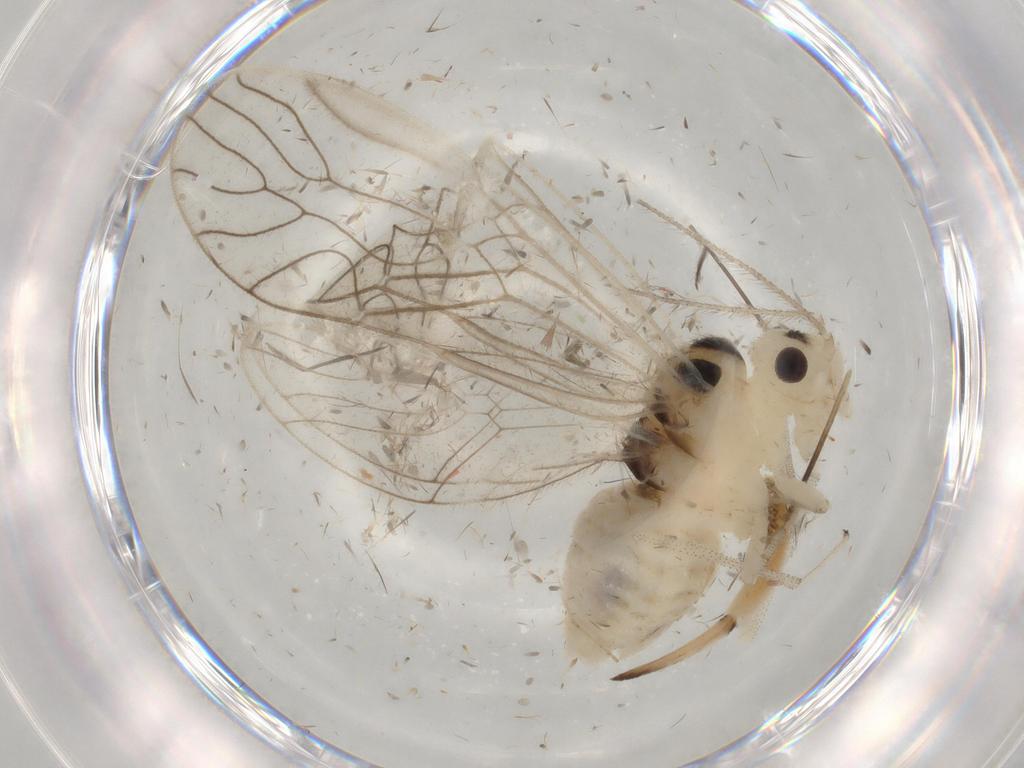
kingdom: Animalia
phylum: Arthropoda
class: Insecta
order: Psocodea
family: Amphipsocidae
